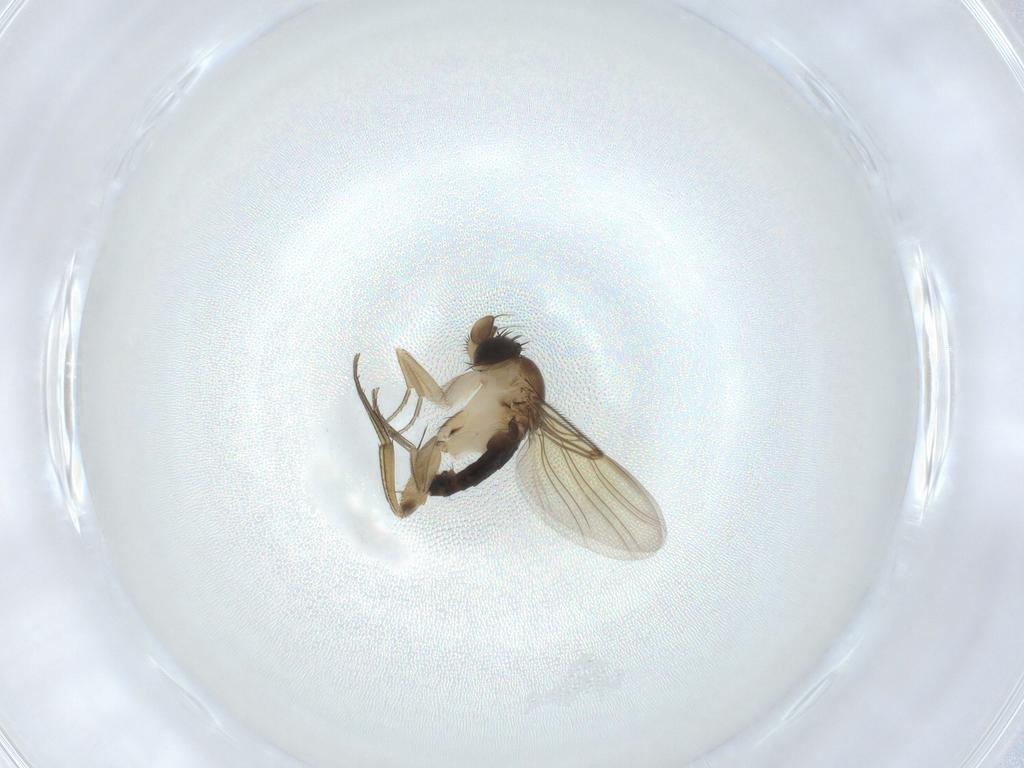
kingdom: Animalia
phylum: Arthropoda
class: Insecta
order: Diptera
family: Phoridae
